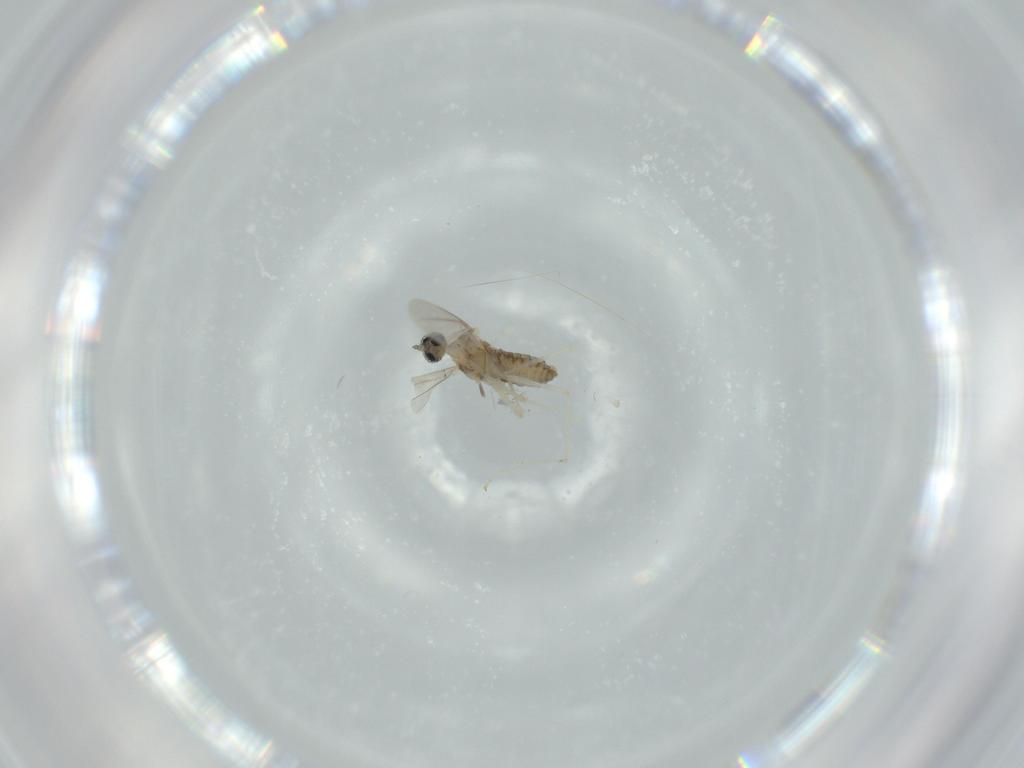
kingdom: Animalia
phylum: Arthropoda
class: Insecta
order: Diptera
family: Cecidomyiidae
